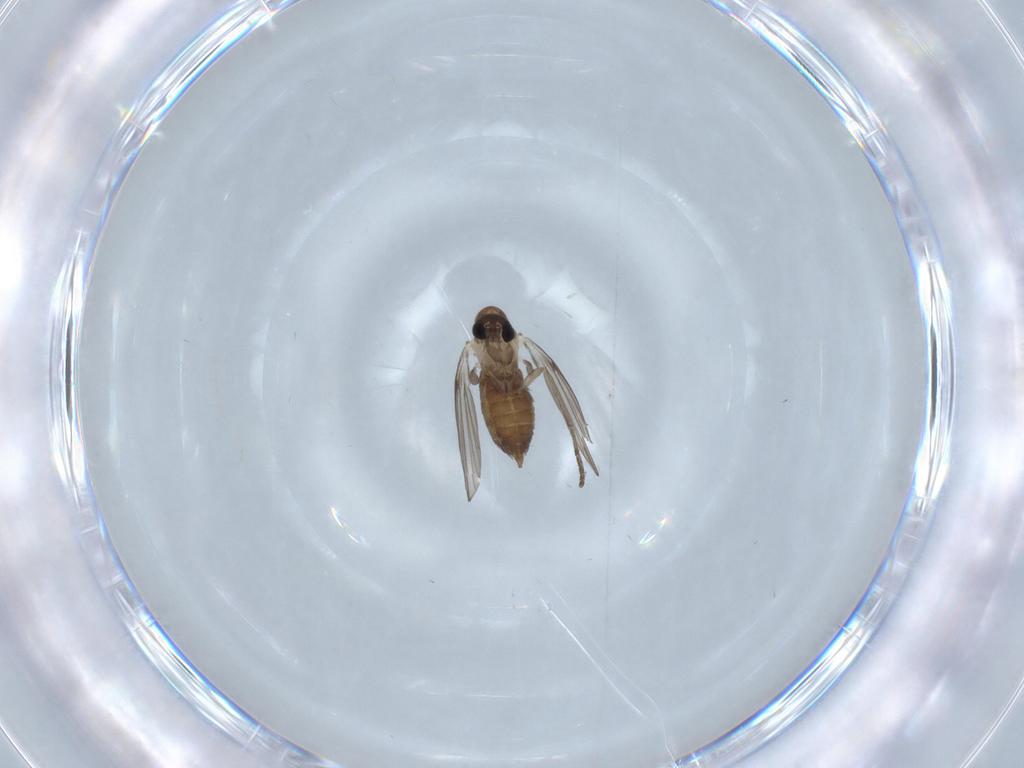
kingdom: Animalia
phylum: Arthropoda
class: Insecta
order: Diptera
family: Psychodidae
